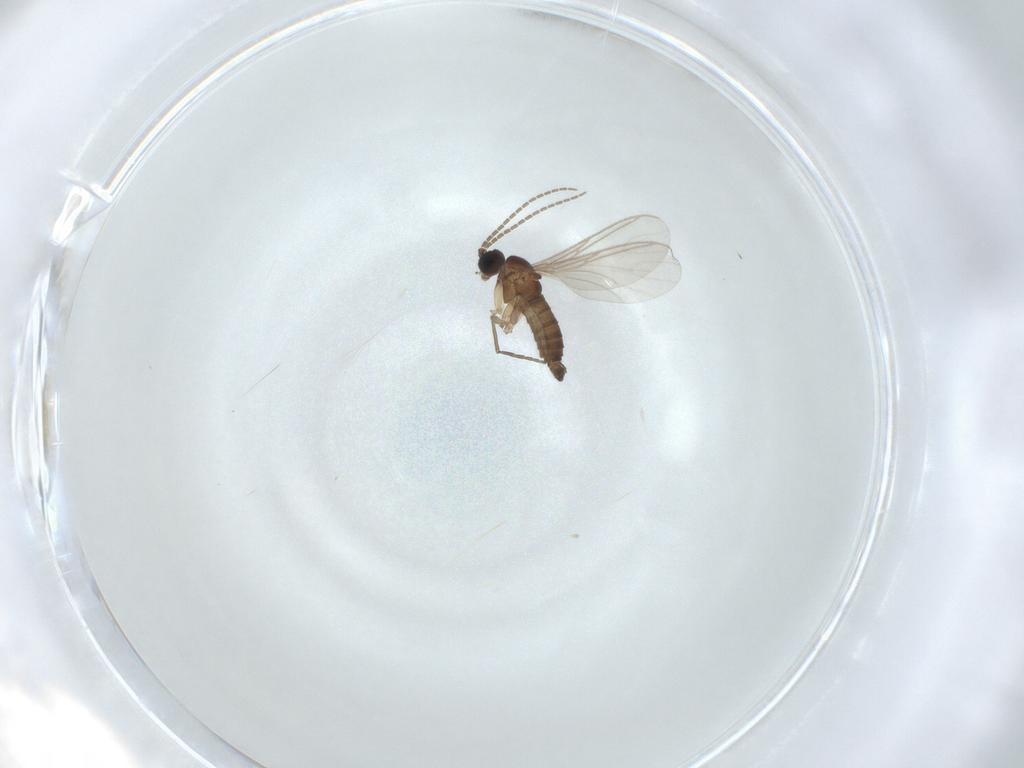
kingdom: Animalia
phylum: Arthropoda
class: Insecta
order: Diptera
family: Sciaridae
